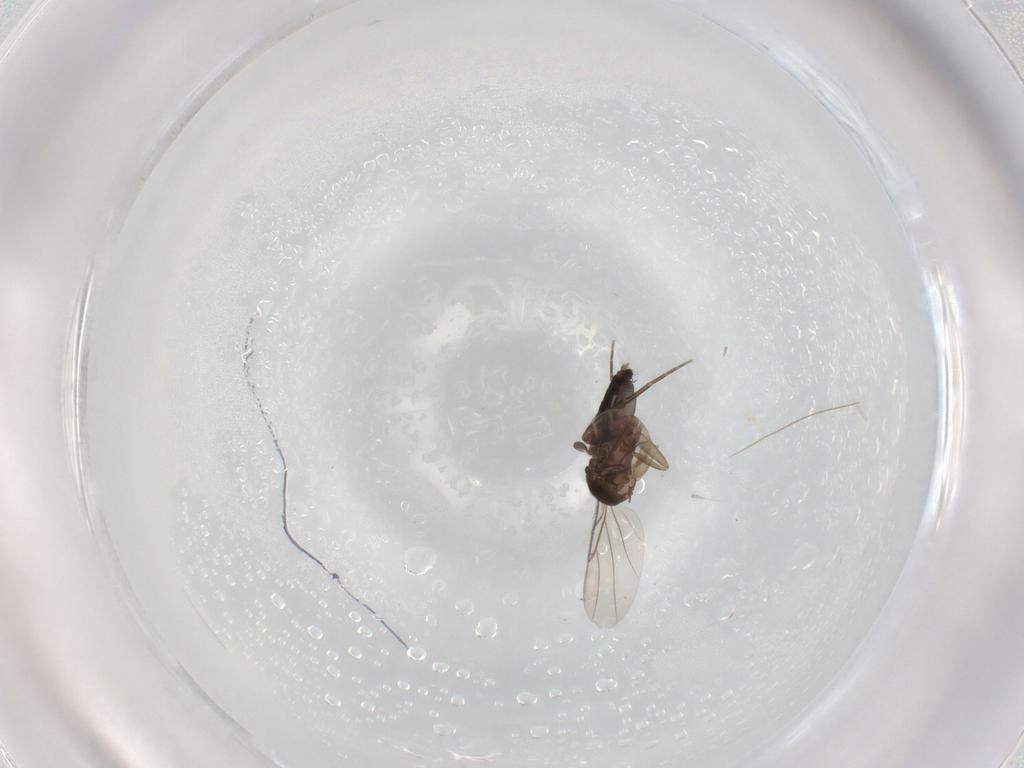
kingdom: Animalia
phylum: Arthropoda
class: Insecta
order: Diptera
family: Phoridae
